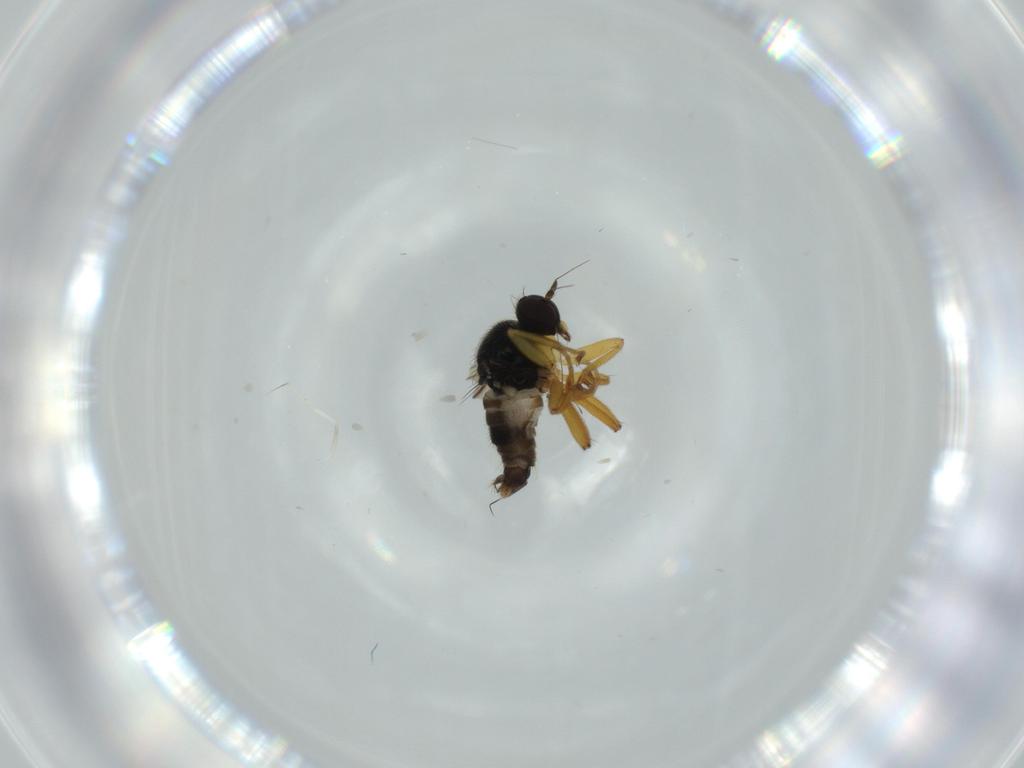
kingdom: Animalia
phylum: Arthropoda
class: Insecta
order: Diptera
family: Hybotidae
